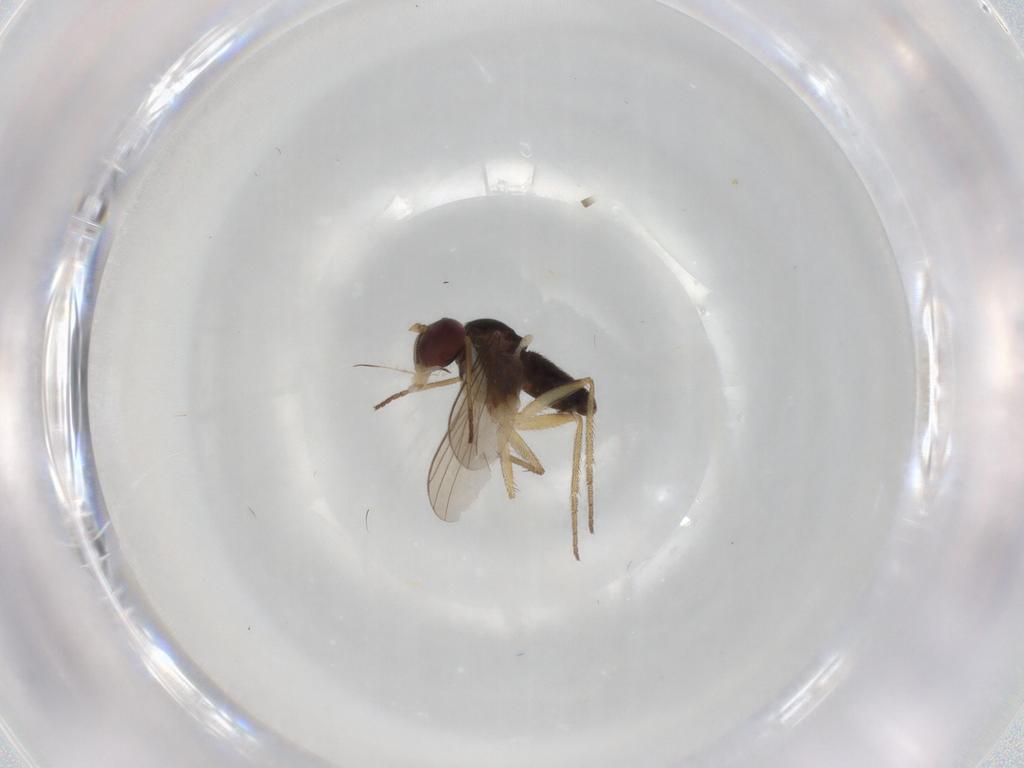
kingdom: Animalia
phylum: Arthropoda
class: Insecta
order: Diptera
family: Dolichopodidae
